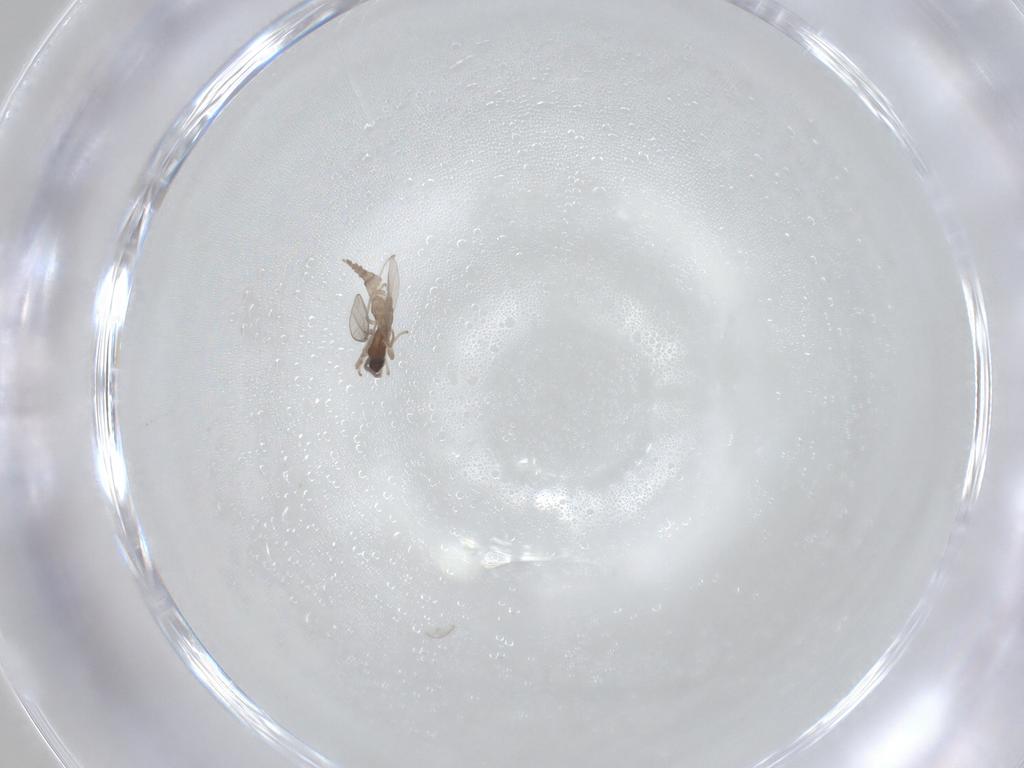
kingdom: Animalia
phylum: Arthropoda
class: Insecta
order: Diptera
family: Cecidomyiidae
